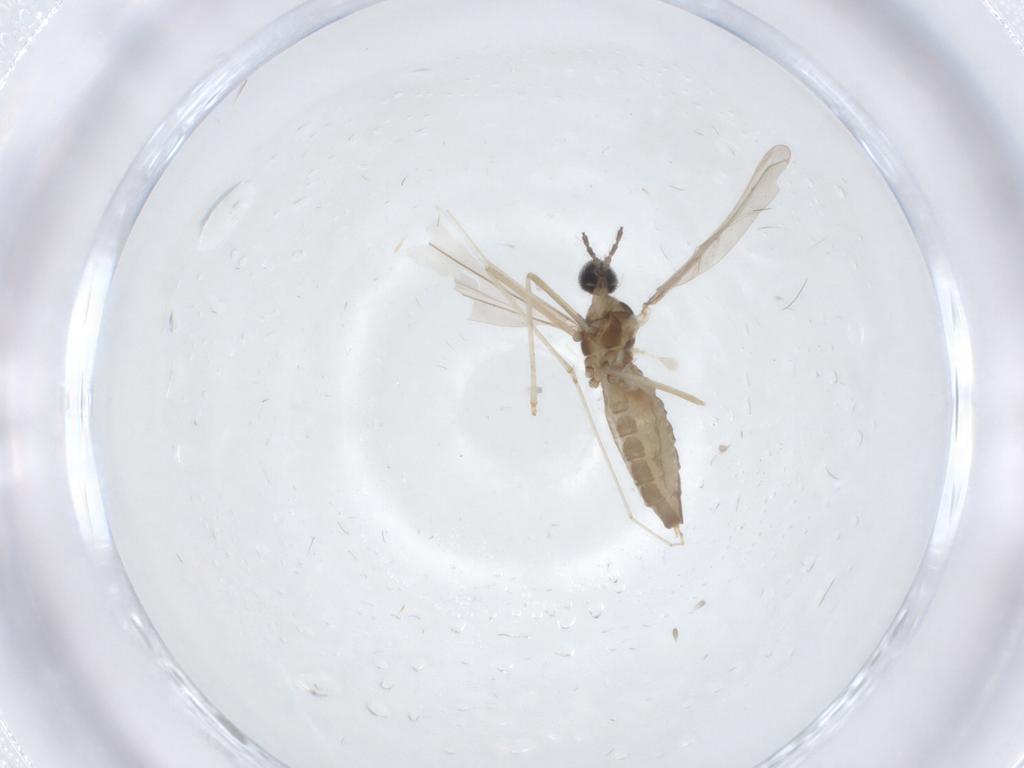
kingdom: Animalia
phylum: Arthropoda
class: Insecta
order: Diptera
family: Cecidomyiidae
